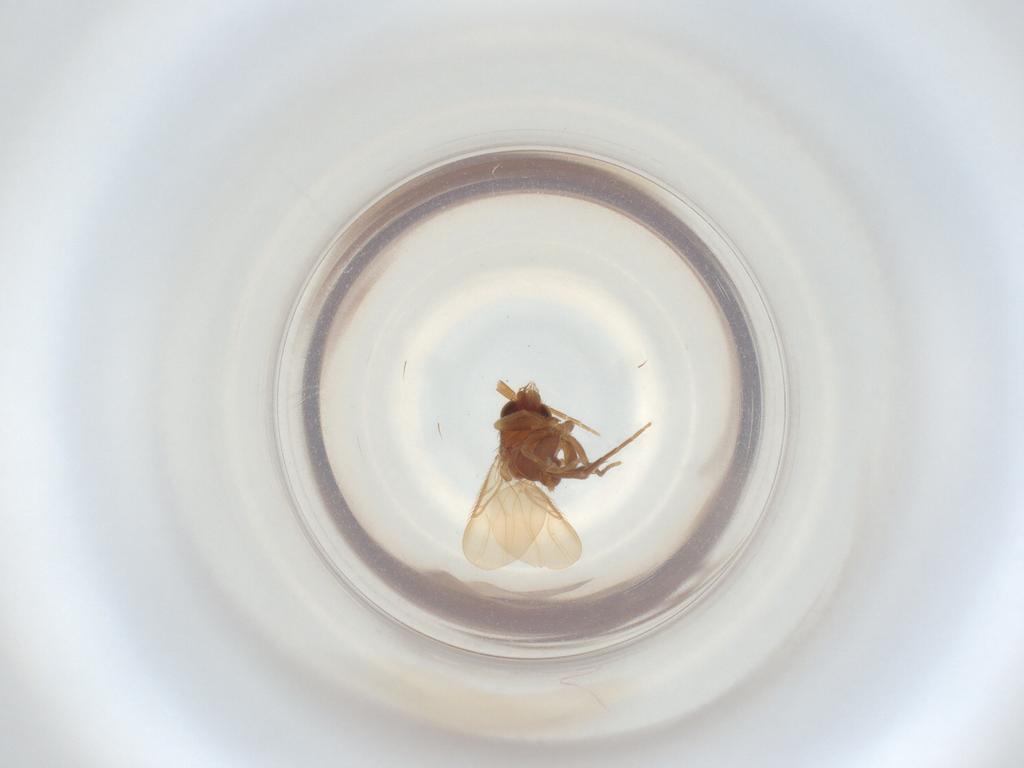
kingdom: Animalia
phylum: Arthropoda
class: Insecta
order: Diptera
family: Phoridae
